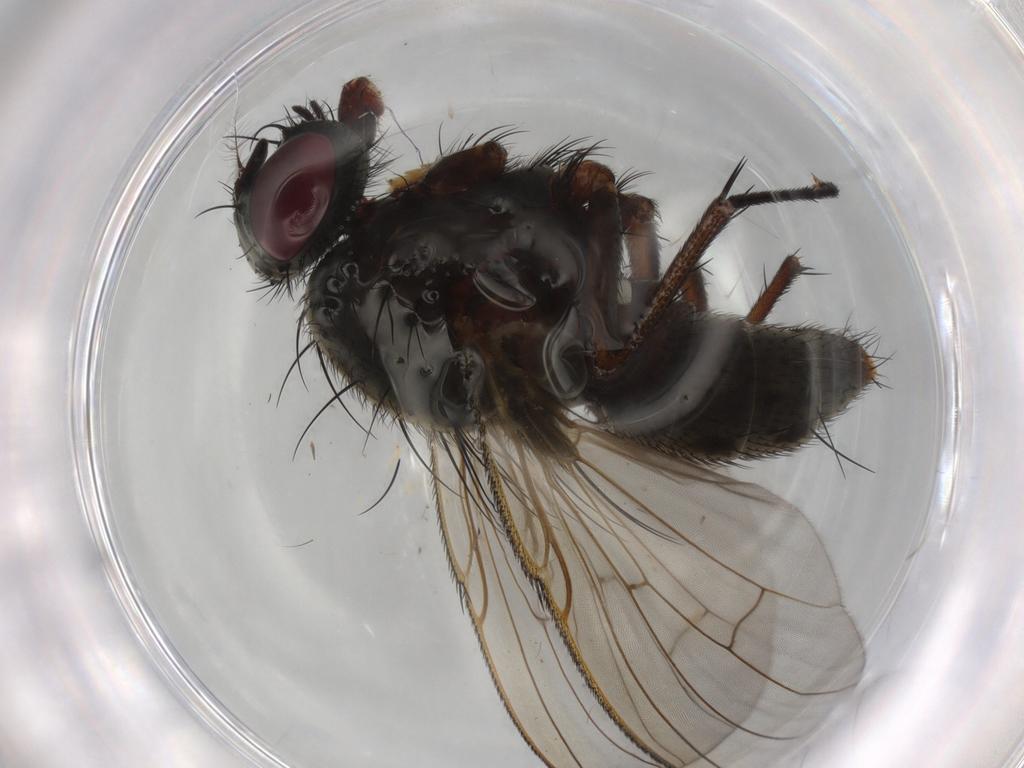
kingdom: Animalia
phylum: Arthropoda
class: Insecta
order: Diptera
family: Muscidae
